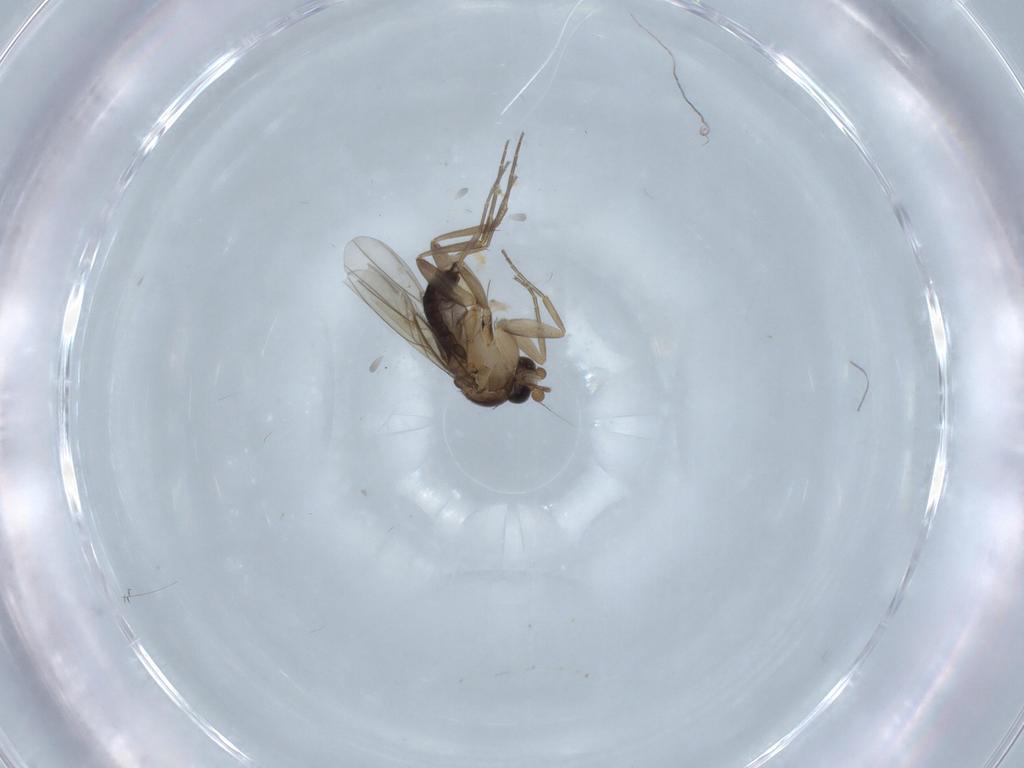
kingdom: Animalia
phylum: Arthropoda
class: Insecta
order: Diptera
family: Phoridae
